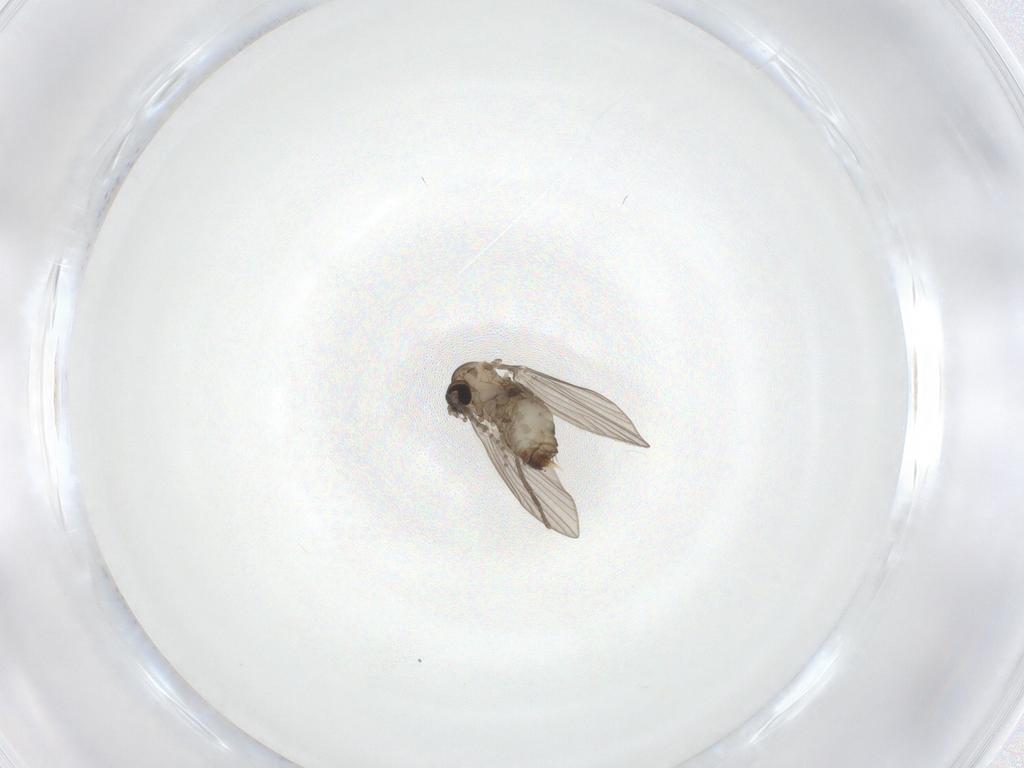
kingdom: Animalia
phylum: Arthropoda
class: Insecta
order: Diptera
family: Psychodidae
